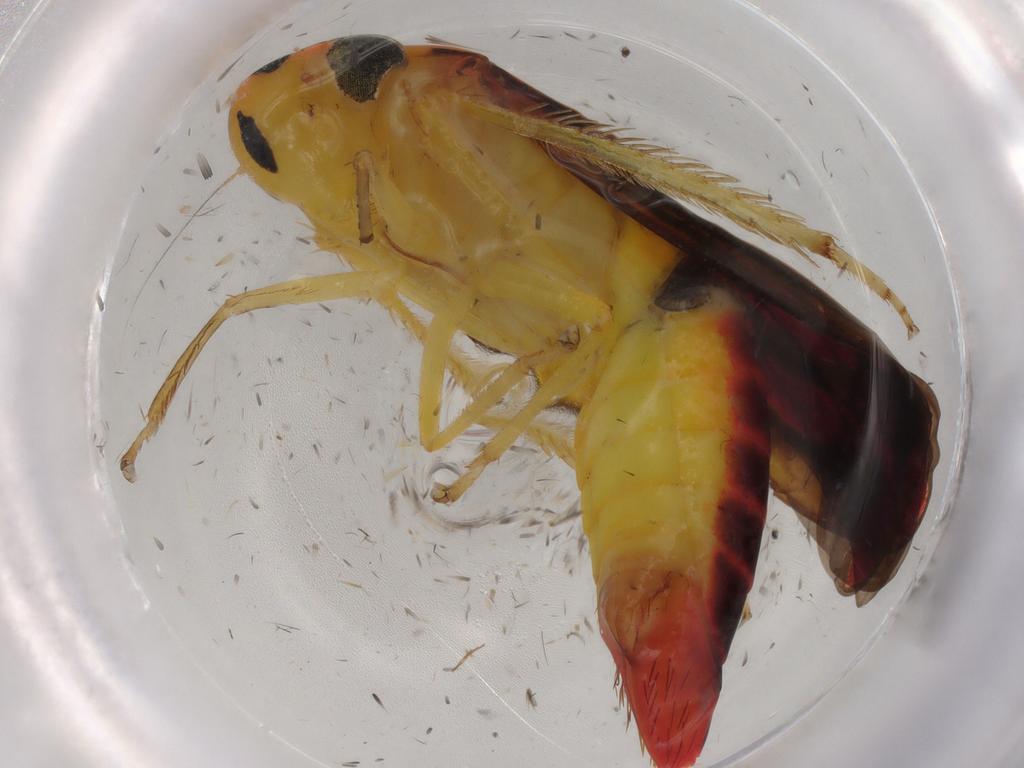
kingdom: Animalia
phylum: Arthropoda
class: Insecta
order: Hemiptera
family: Cicadellidae
